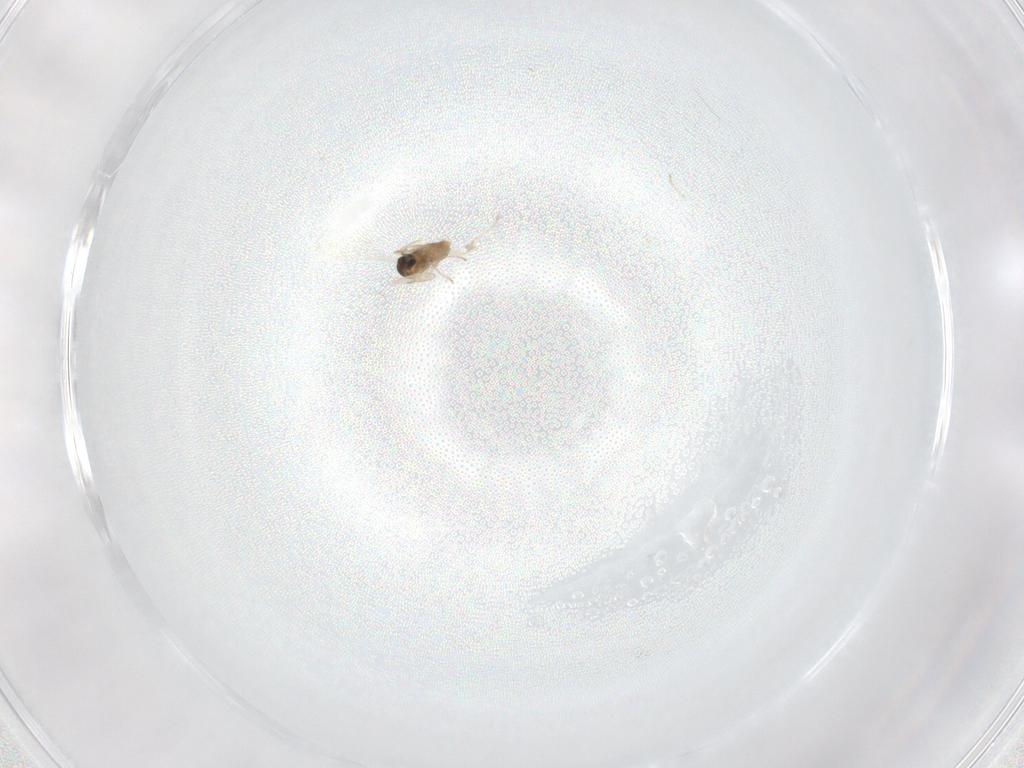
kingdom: Animalia
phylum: Arthropoda
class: Insecta
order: Diptera
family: Cecidomyiidae
